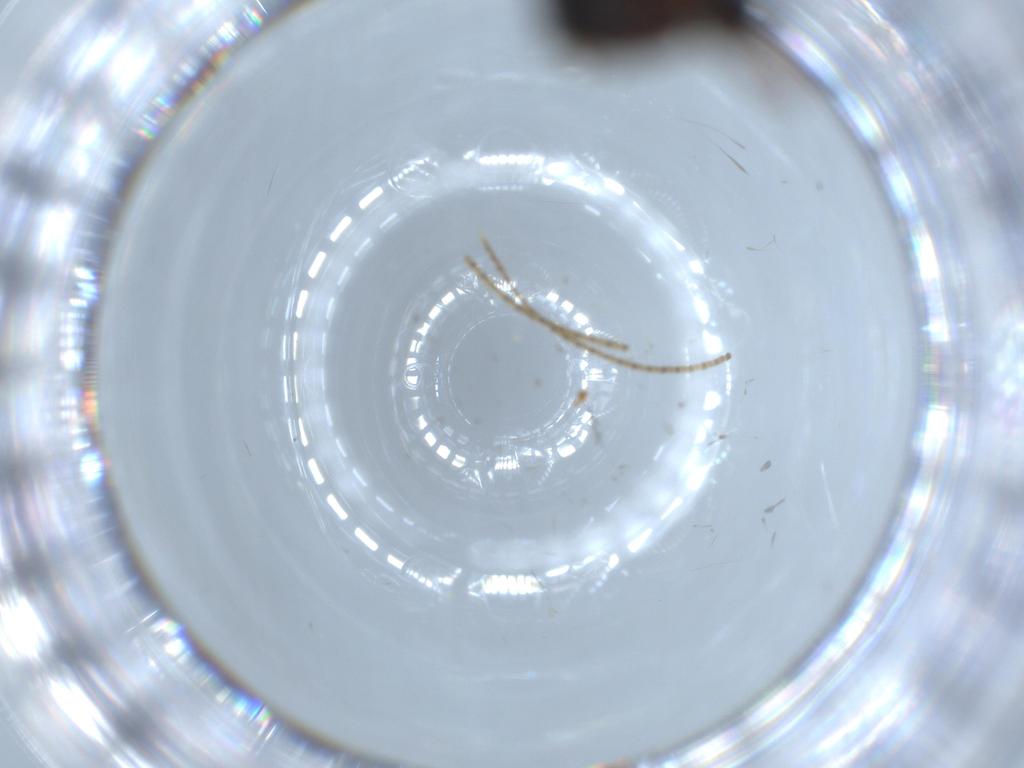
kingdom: Animalia
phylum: Arthropoda
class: Insecta
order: Hymenoptera
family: Bethylidae
